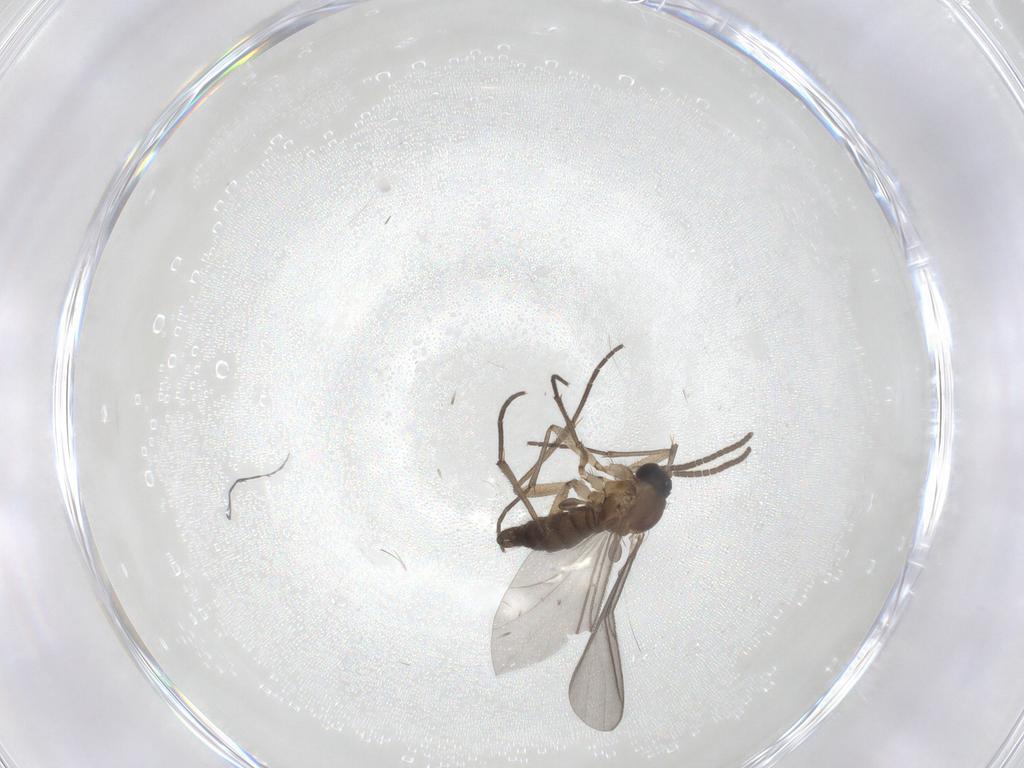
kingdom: Animalia
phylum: Arthropoda
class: Insecta
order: Diptera
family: Sciaridae
